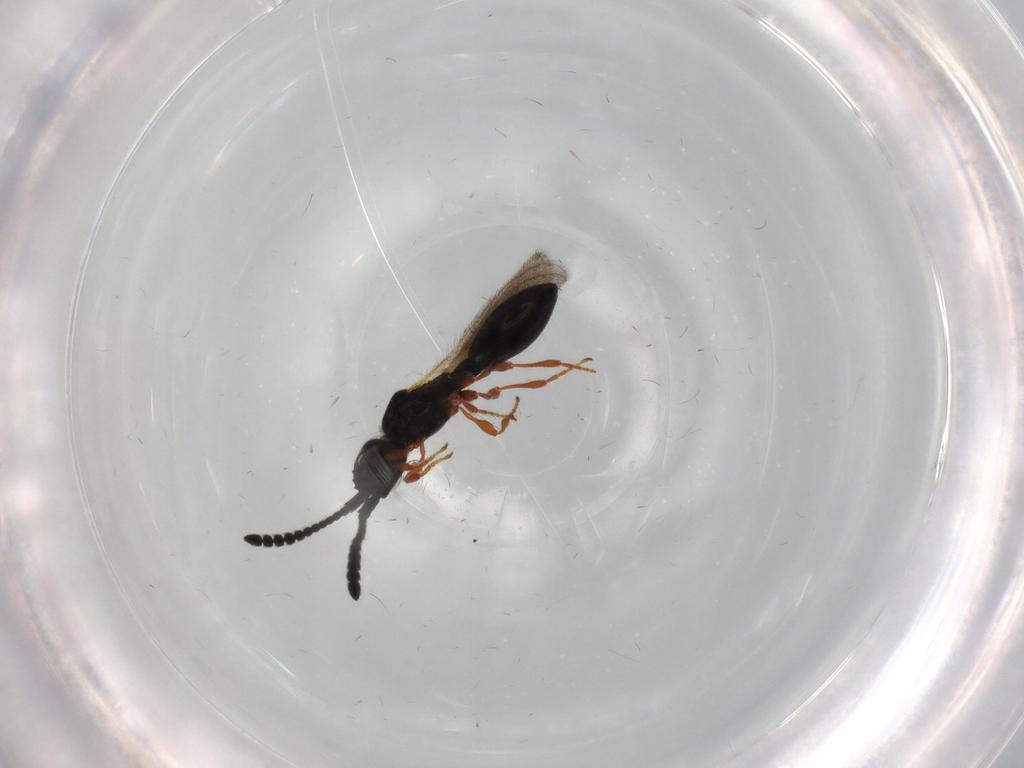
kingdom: Animalia
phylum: Arthropoda
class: Insecta
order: Hymenoptera
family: Diapriidae
